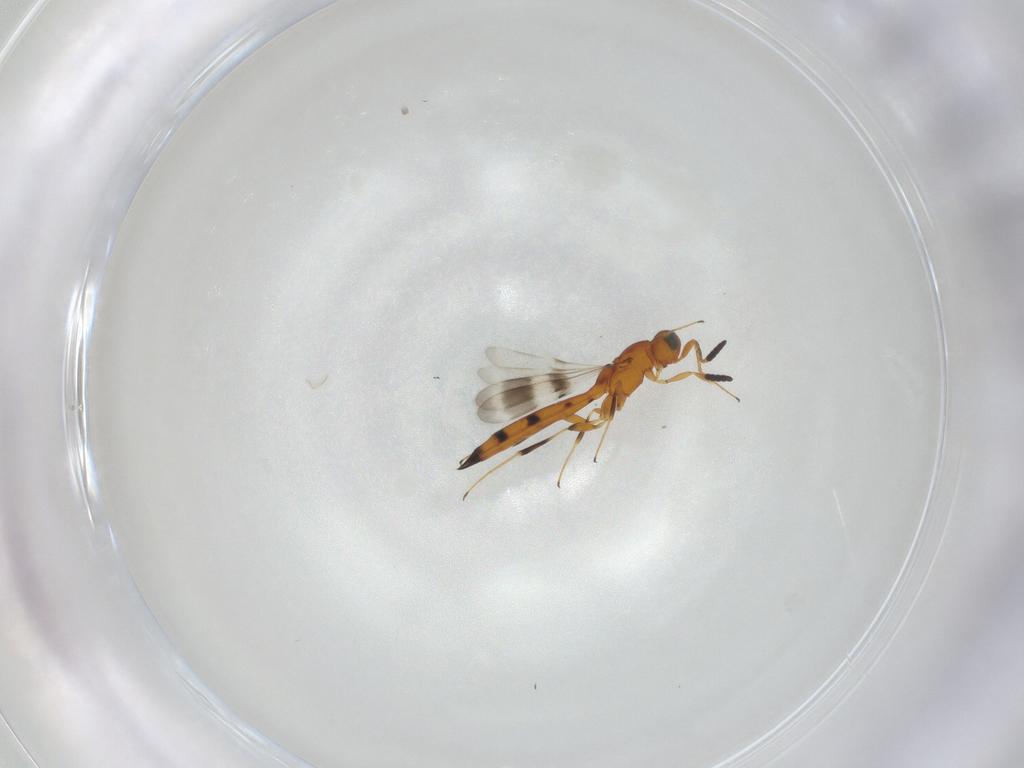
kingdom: Animalia
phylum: Arthropoda
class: Insecta
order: Hymenoptera
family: Scelionidae
